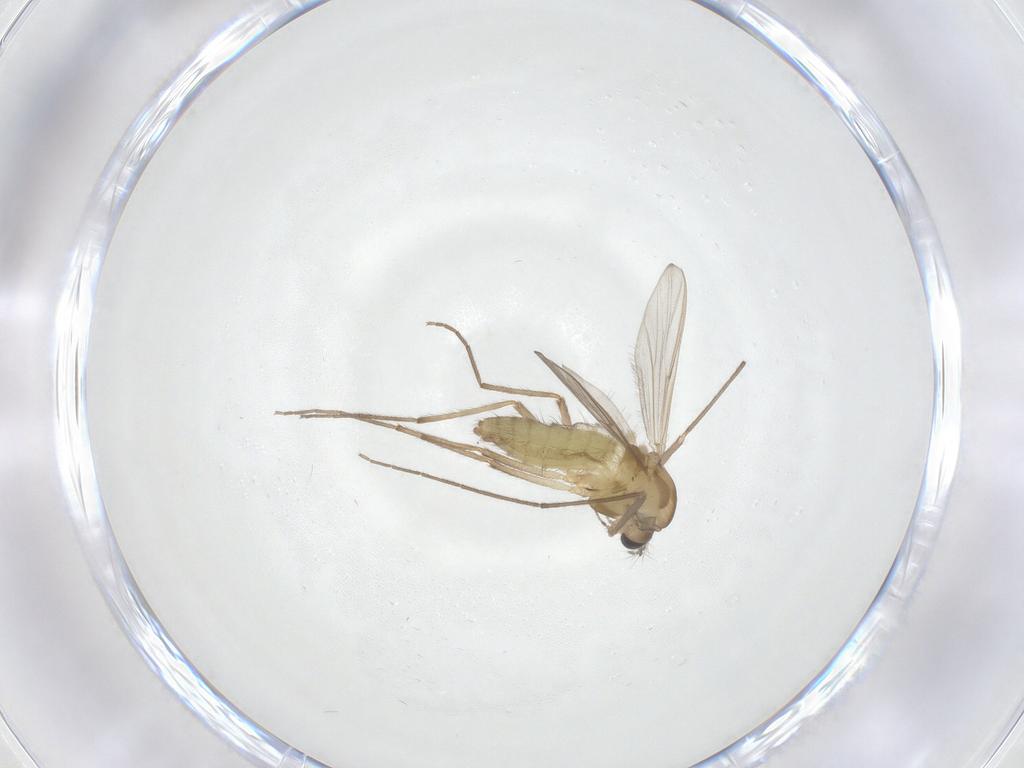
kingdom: Animalia
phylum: Arthropoda
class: Insecta
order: Diptera
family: Chironomidae
